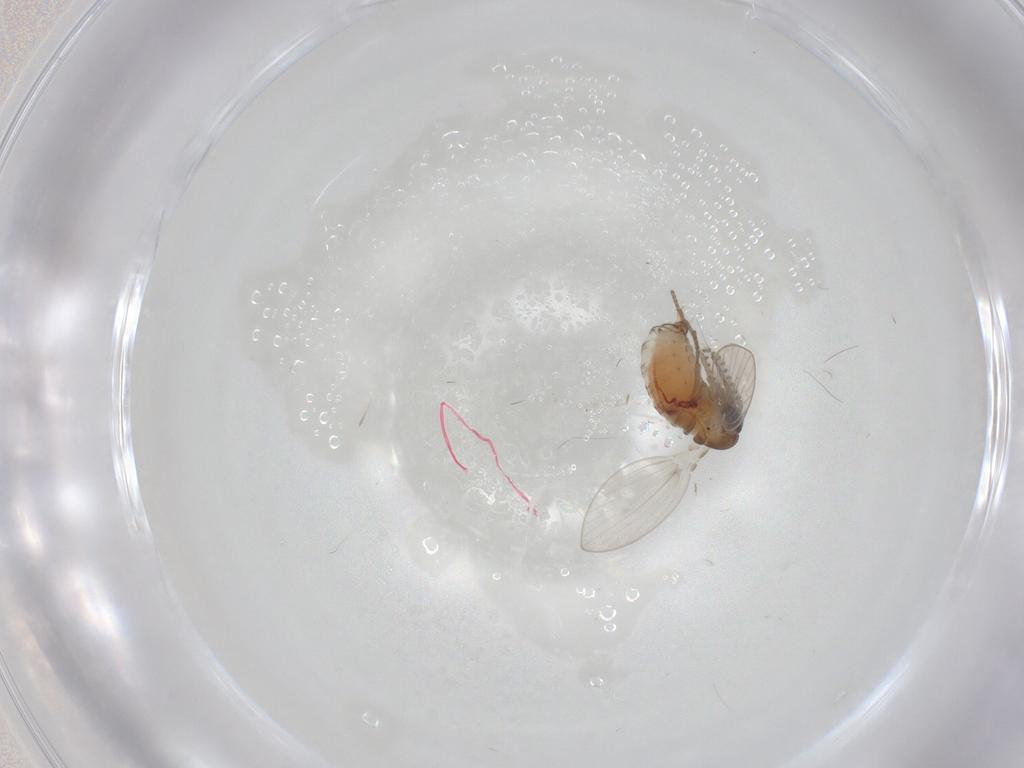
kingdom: Animalia
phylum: Arthropoda
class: Insecta
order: Diptera
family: Psychodidae
